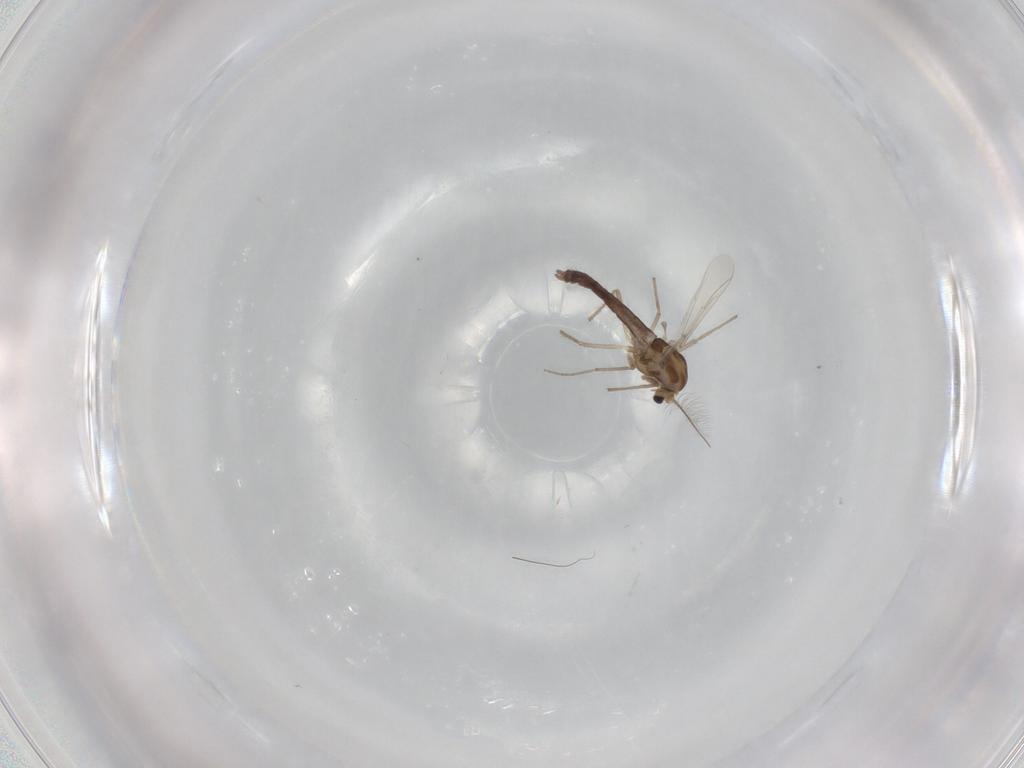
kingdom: Animalia
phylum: Arthropoda
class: Insecta
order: Diptera
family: Chironomidae
